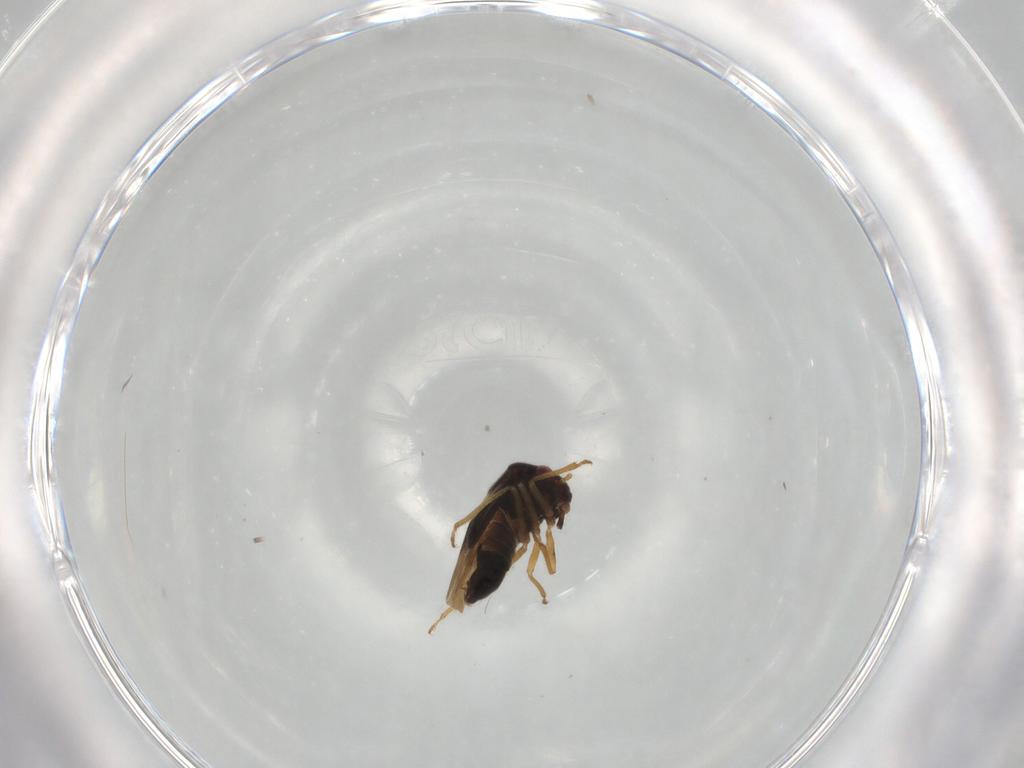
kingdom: Animalia
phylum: Arthropoda
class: Insecta
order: Hemiptera
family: Schizopteridae
